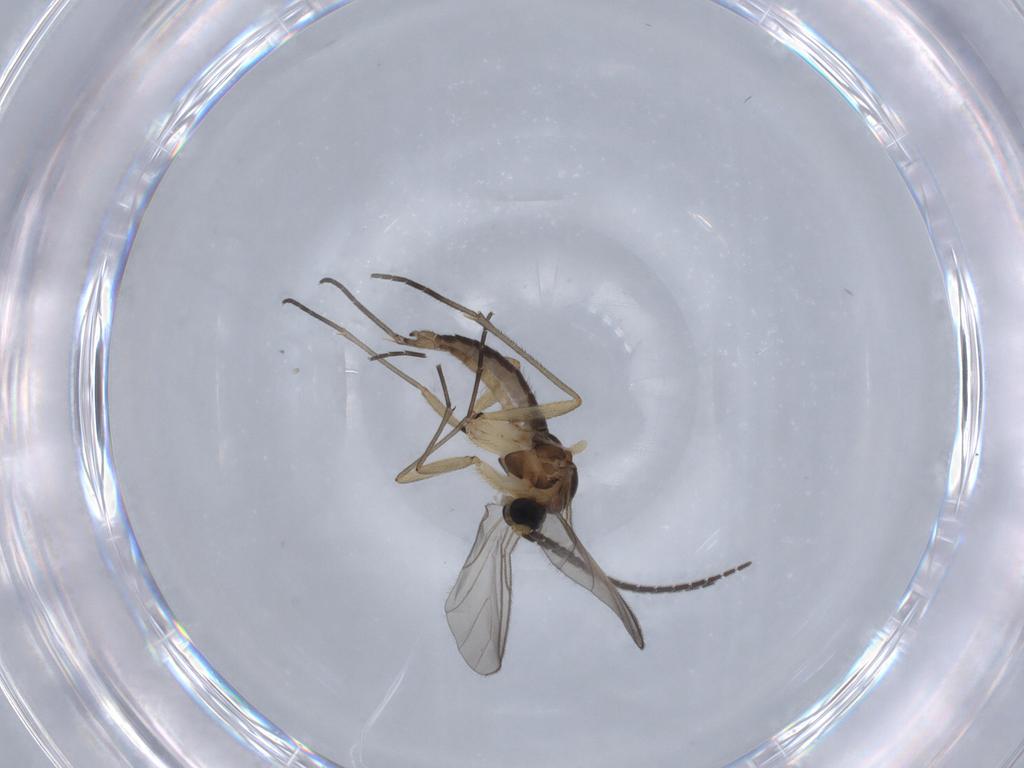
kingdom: Animalia
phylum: Arthropoda
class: Insecta
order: Diptera
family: Sciaridae
